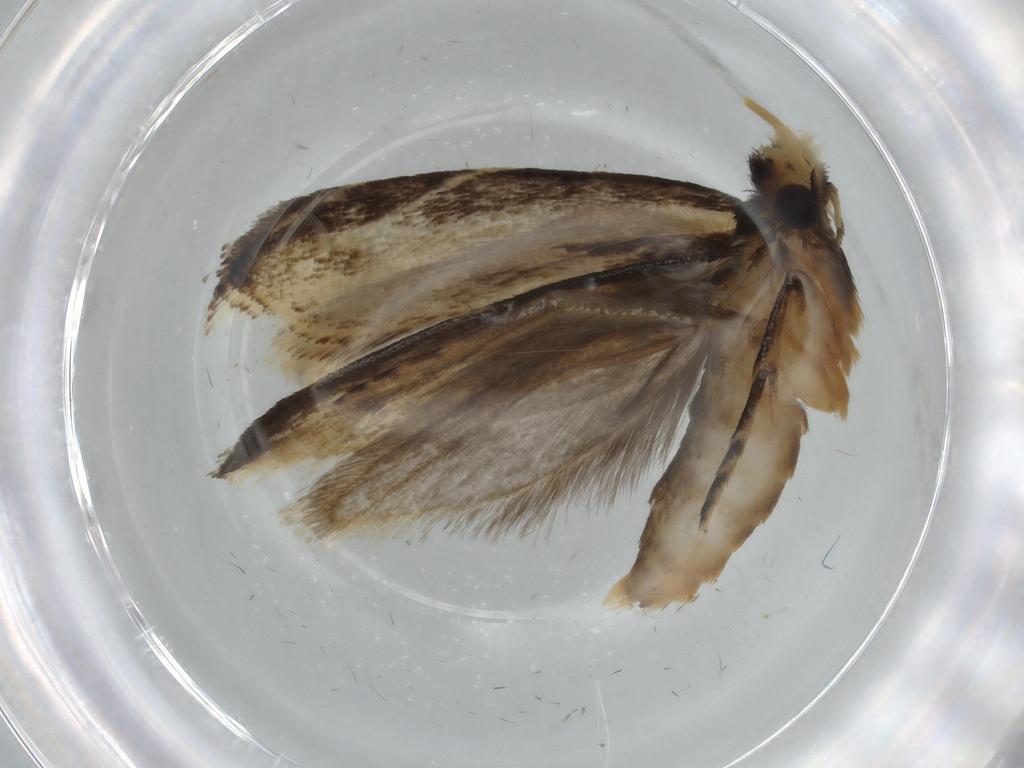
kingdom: Animalia
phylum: Arthropoda
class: Insecta
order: Lepidoptera
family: Tineidae
